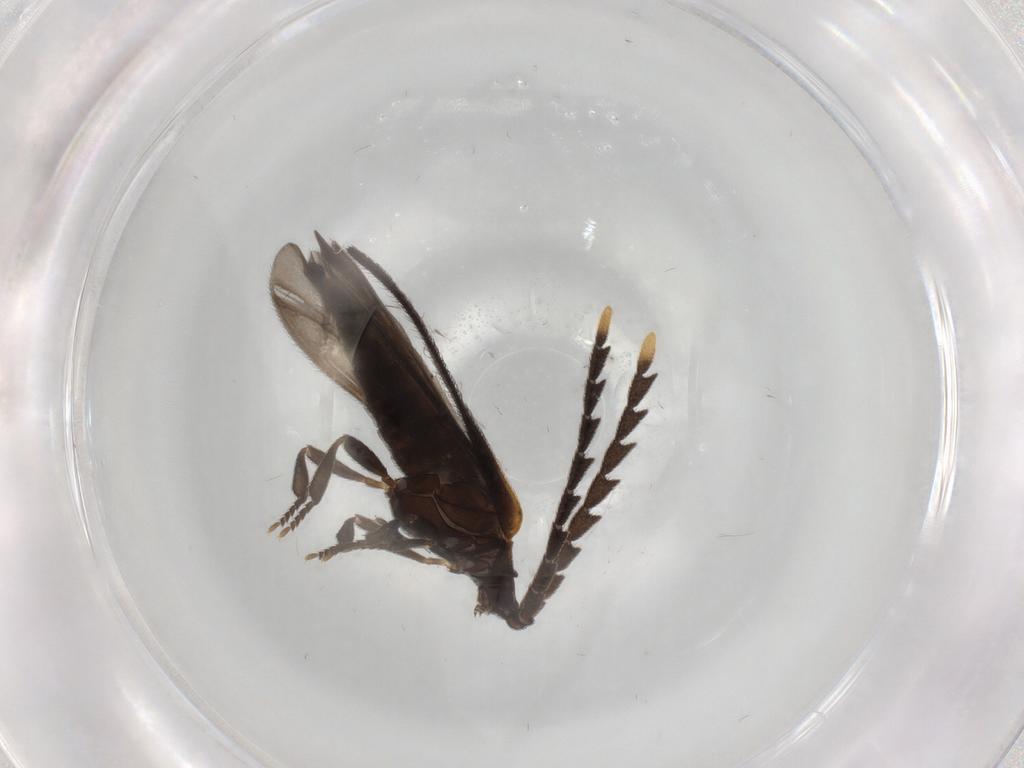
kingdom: Animalia
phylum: Arthropoda
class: Insecta
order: Coleoptera
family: Lycidae
